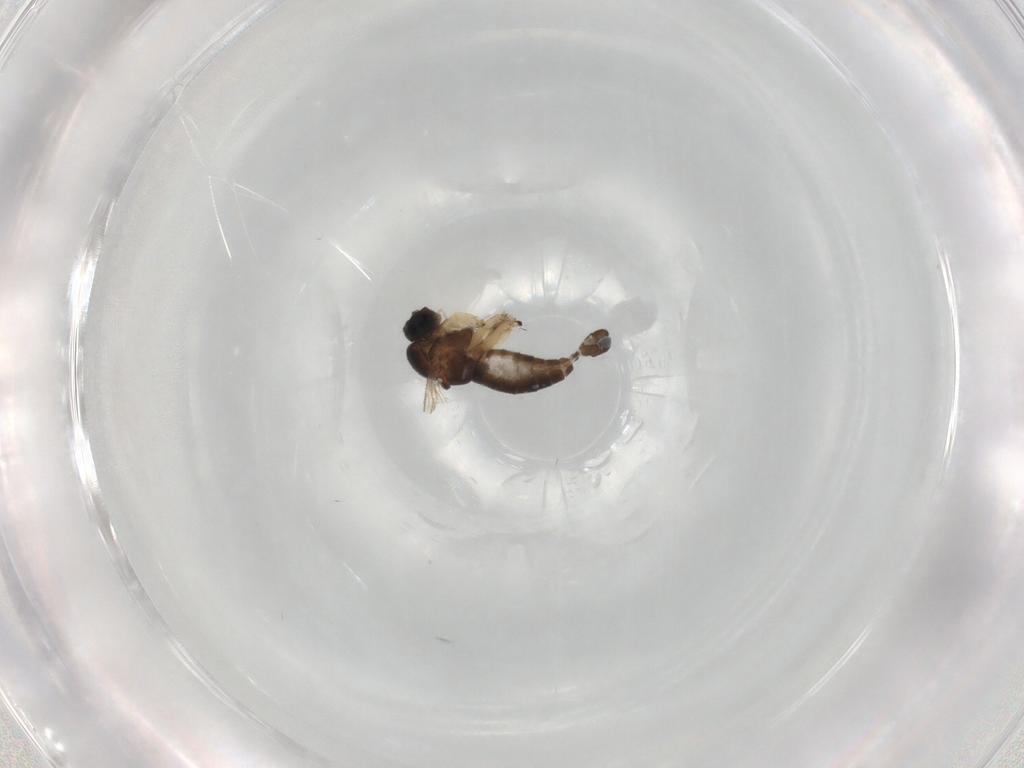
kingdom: Animalia
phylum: Arthropoda
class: Insecta
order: Diptera
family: Sciaridae
